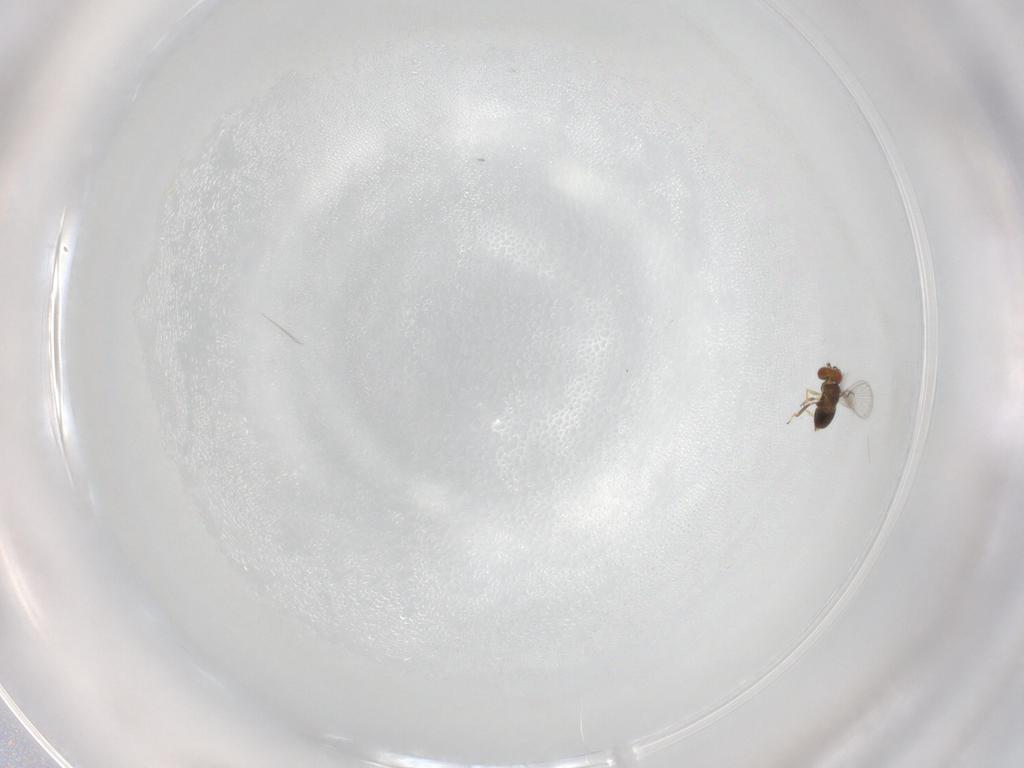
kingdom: Animalia
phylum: Arthropoda
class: Insecta
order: Hymenoptera
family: Trichogrammatidae
